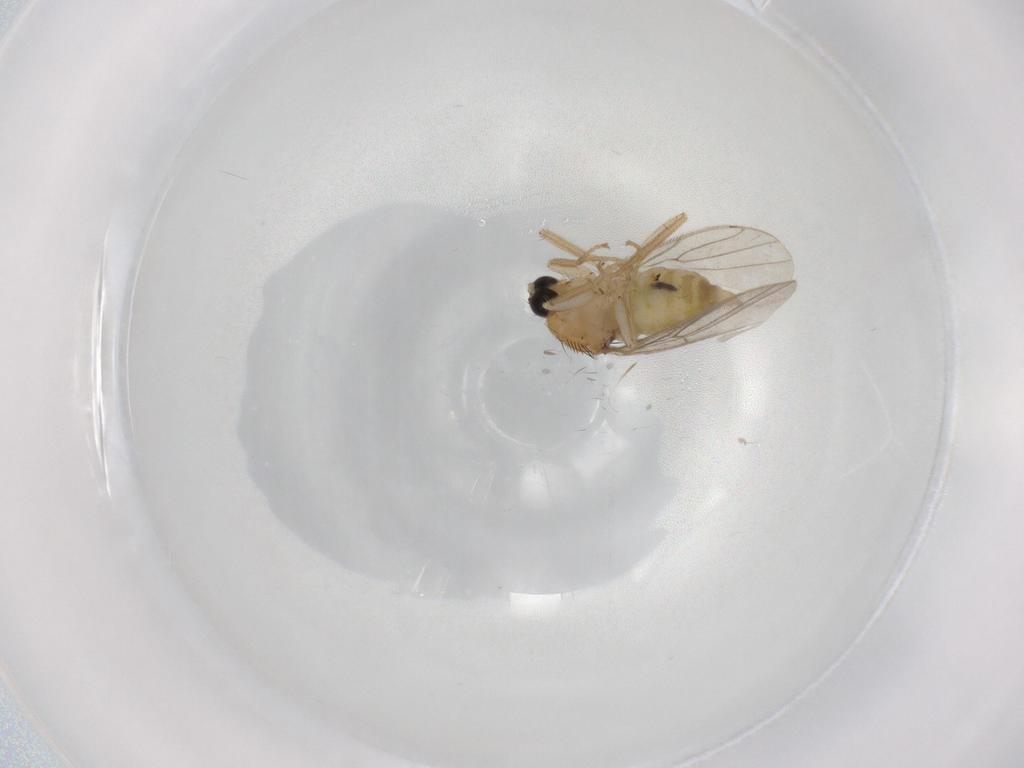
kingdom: Animalia
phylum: Arthropoda
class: Insecta
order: Diptera
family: Hybotidae
